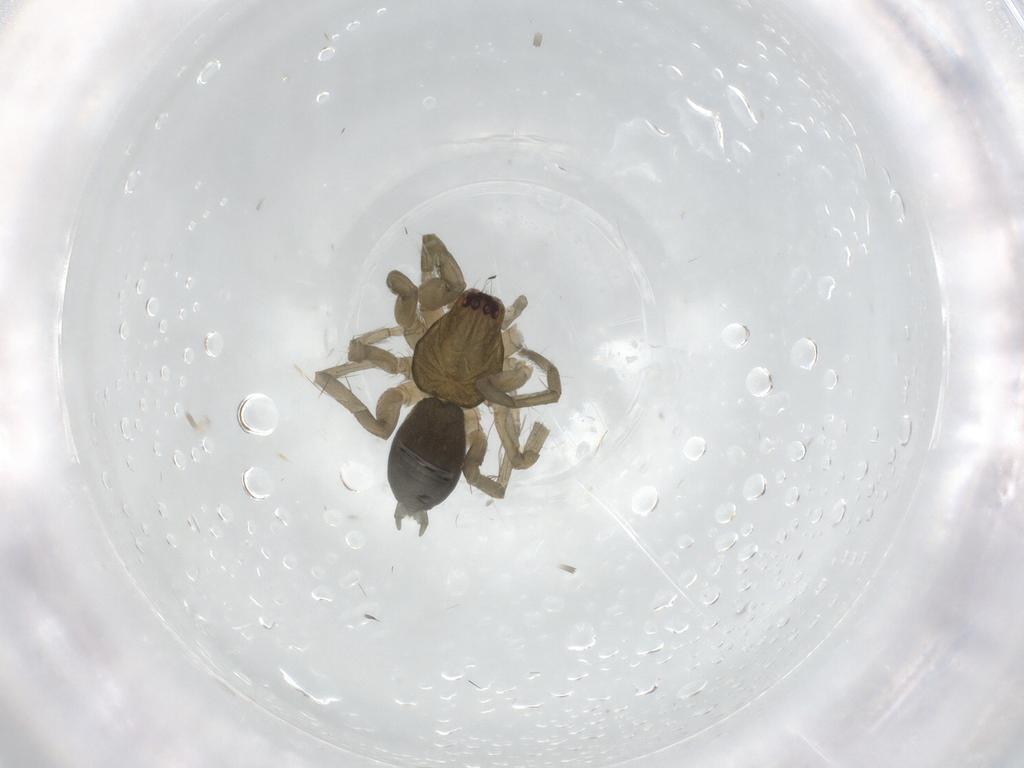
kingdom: Animalia
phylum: Arthropoda
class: Arachnida
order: Araneae
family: Sparassidae
